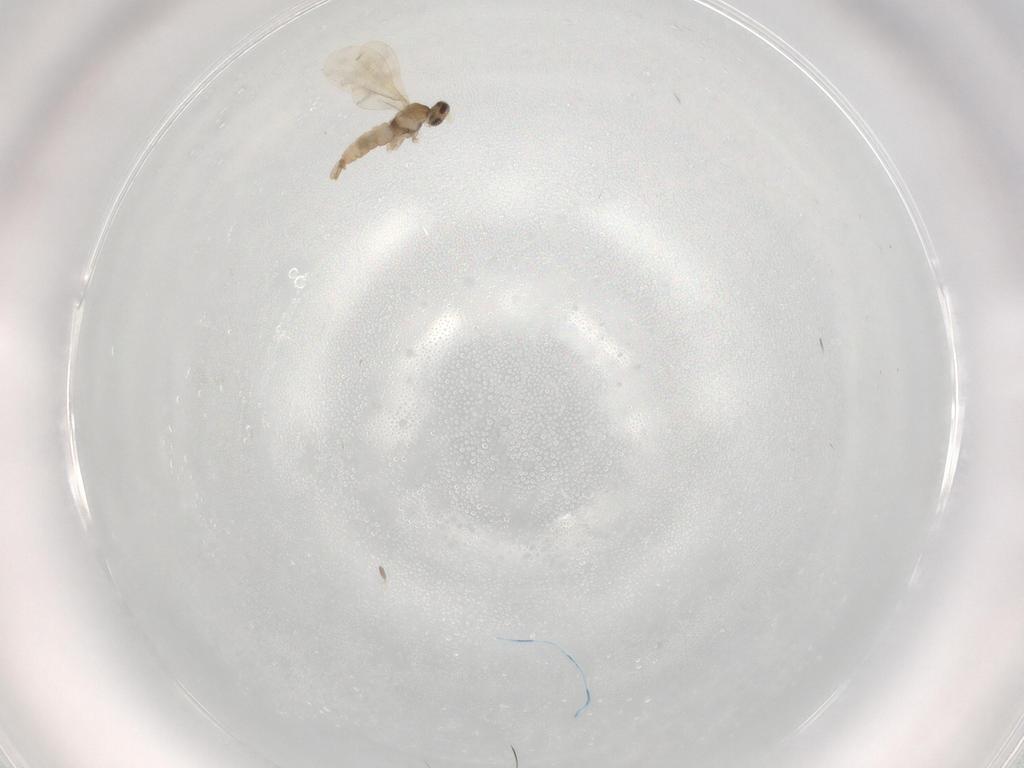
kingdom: Animalia
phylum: Arthropoda
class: Insecta
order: Diptera
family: Cecidomyiidae
